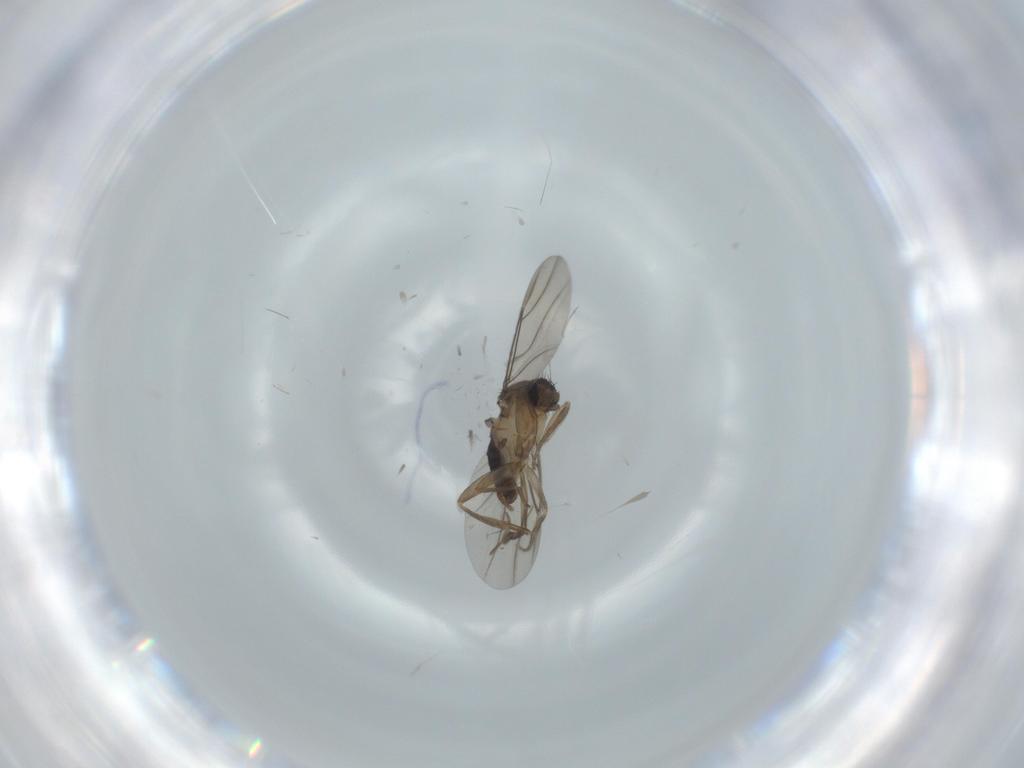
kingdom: Animalia
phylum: Arthropoda
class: Insecta
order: Diptera
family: Phoridae
